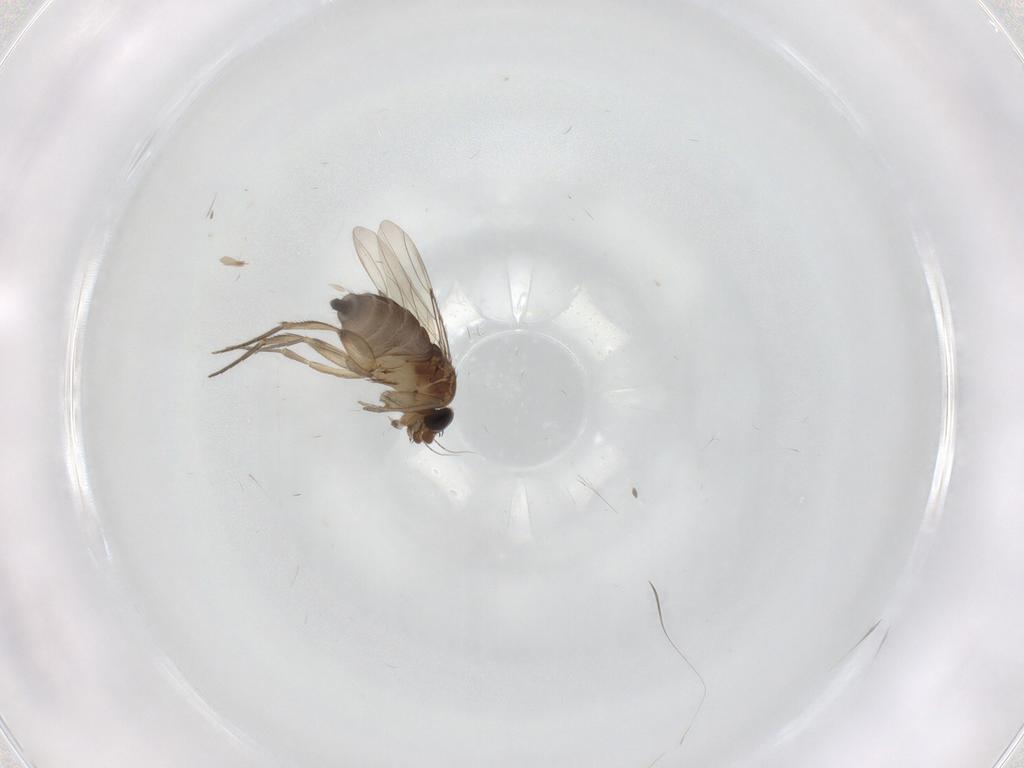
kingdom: Animalia
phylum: Arthropoda
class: Insecta
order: Diptera
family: Phoridae
